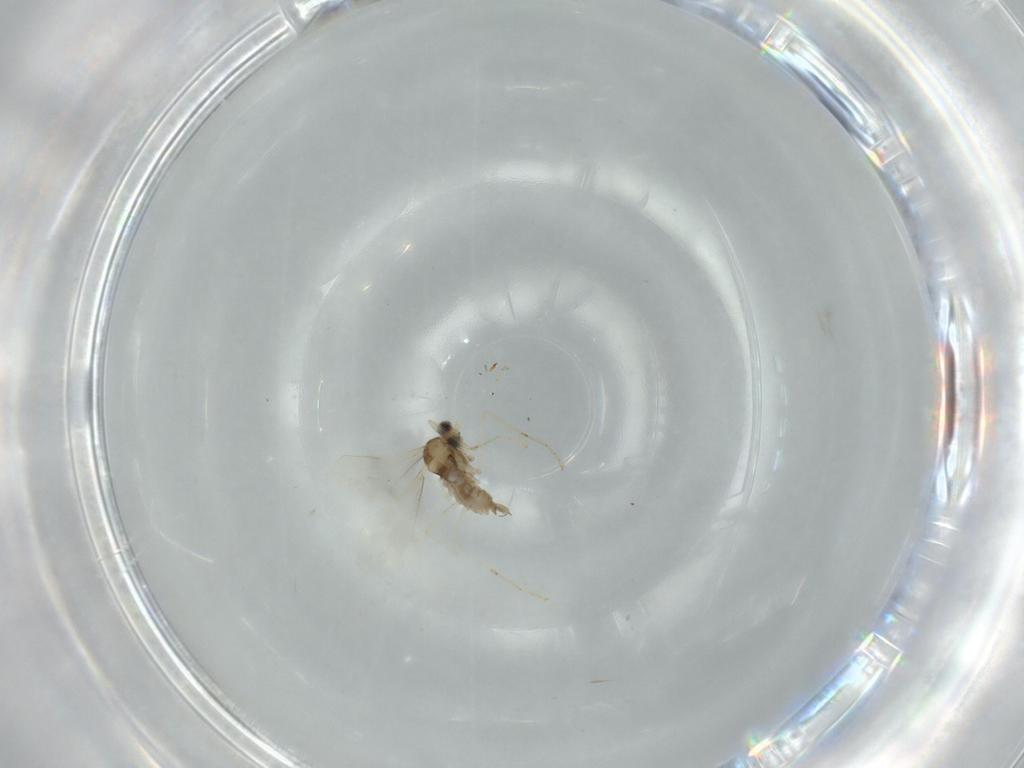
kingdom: Animalia
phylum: Arthropoda
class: Insecta
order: Diptera
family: Cecidomyiidae
